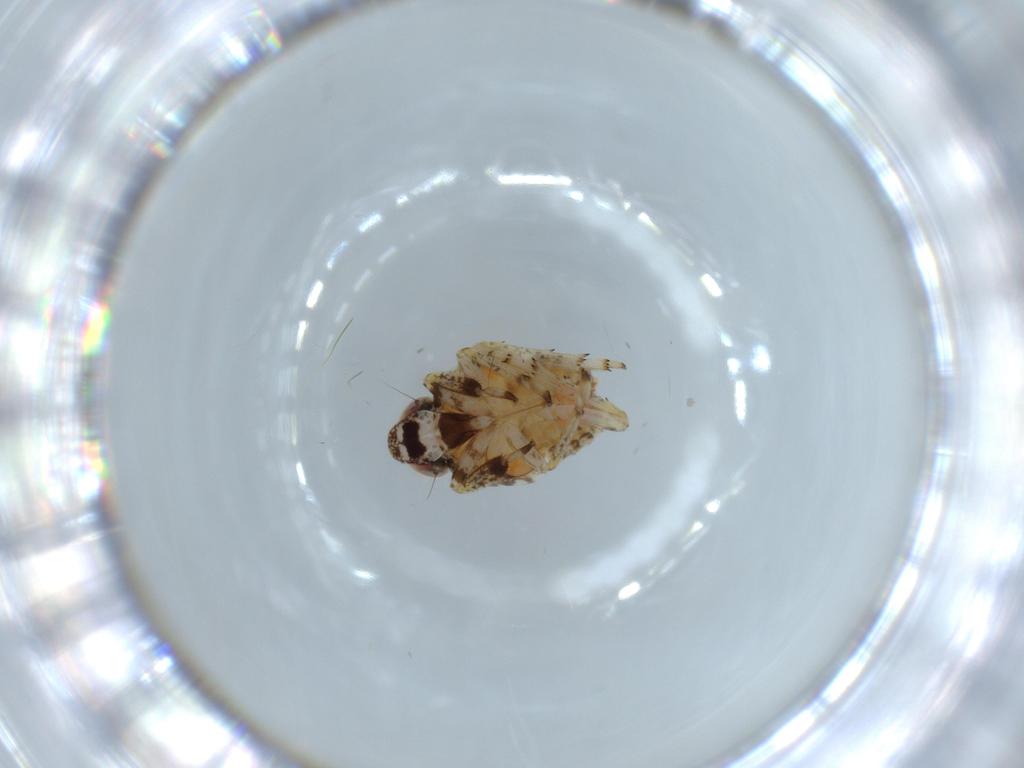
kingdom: Animalia
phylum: Arthropoda
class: Insecta
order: Hemiptera
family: Issidae
